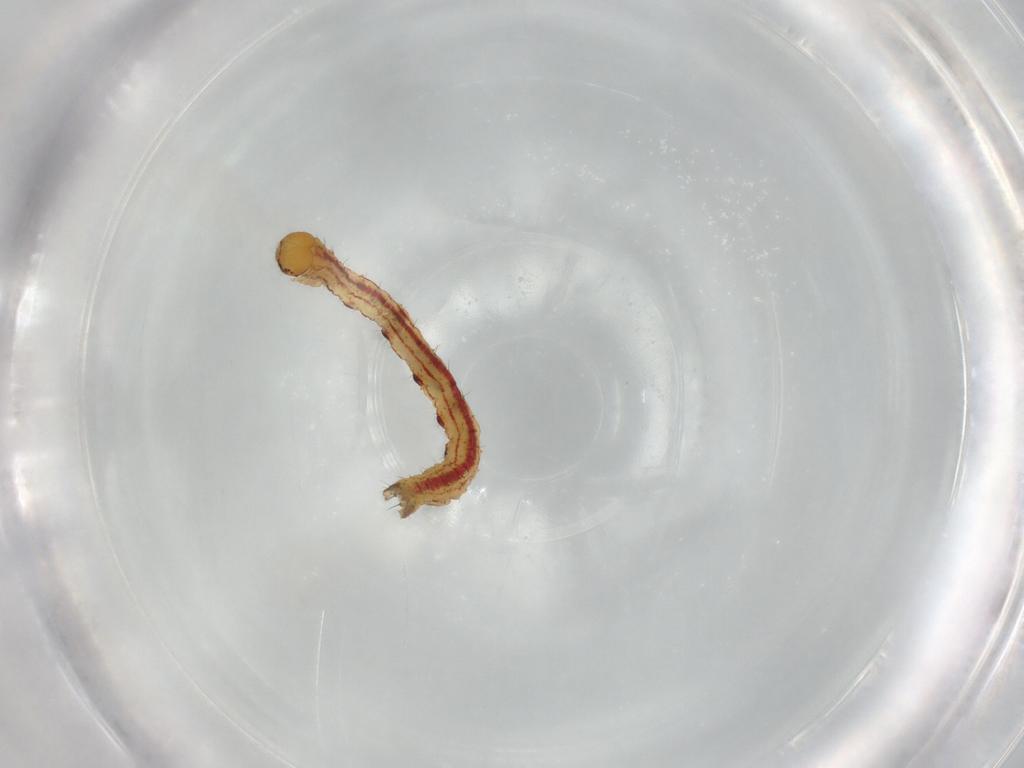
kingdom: Animalia
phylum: Arthropoda
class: Insecta
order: Lepidoptera
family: Geometridae
